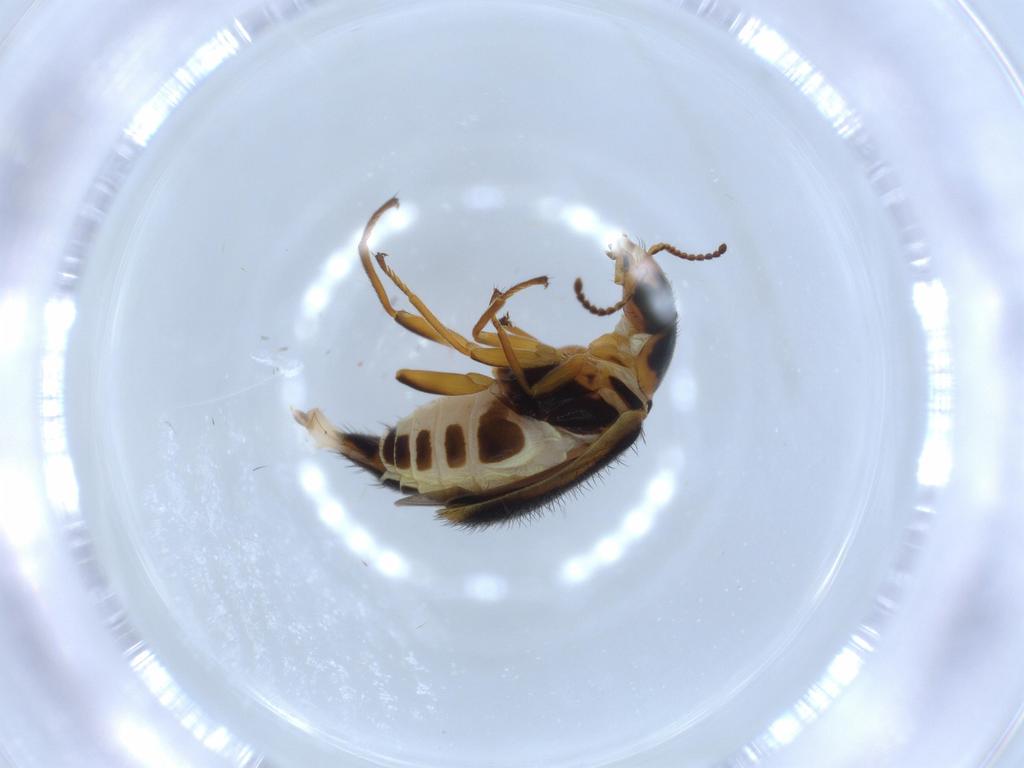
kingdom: Animalia
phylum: Arthropoda
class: Insecta
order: Coleoptera
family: Melyridae
